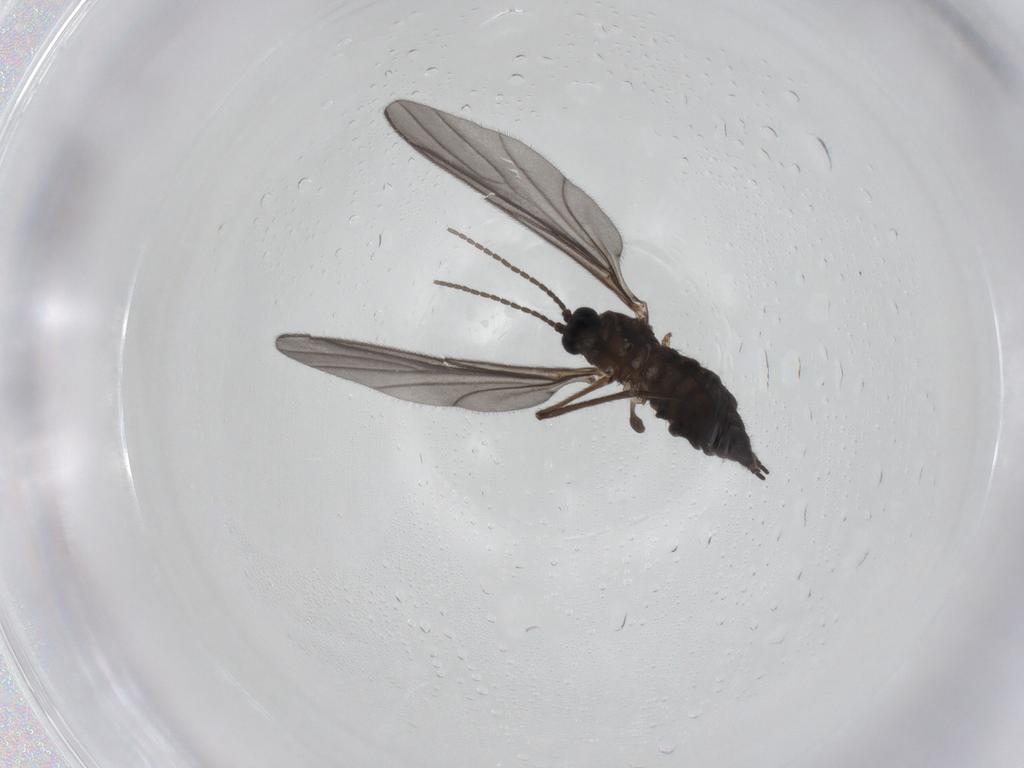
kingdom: Animalia
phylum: Arthropoda
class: Insecta
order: Diptera
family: Sciaridae
